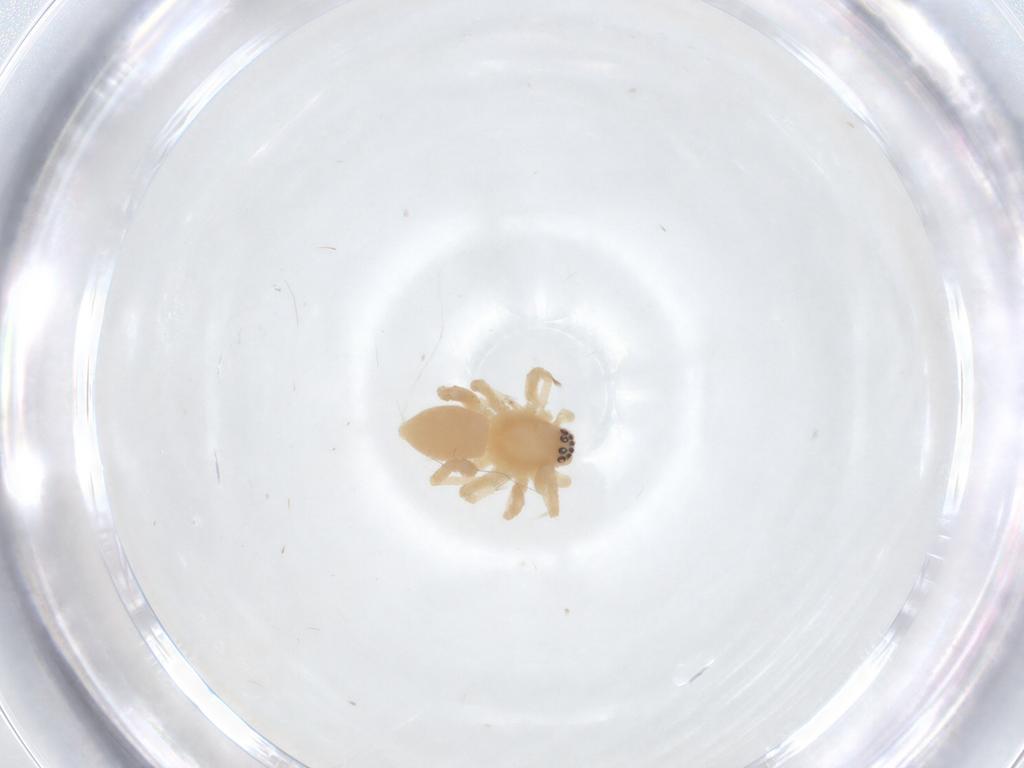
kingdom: Animalia
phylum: Arthropoda
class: Arachnida
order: Araneae
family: Anyphaenidae
